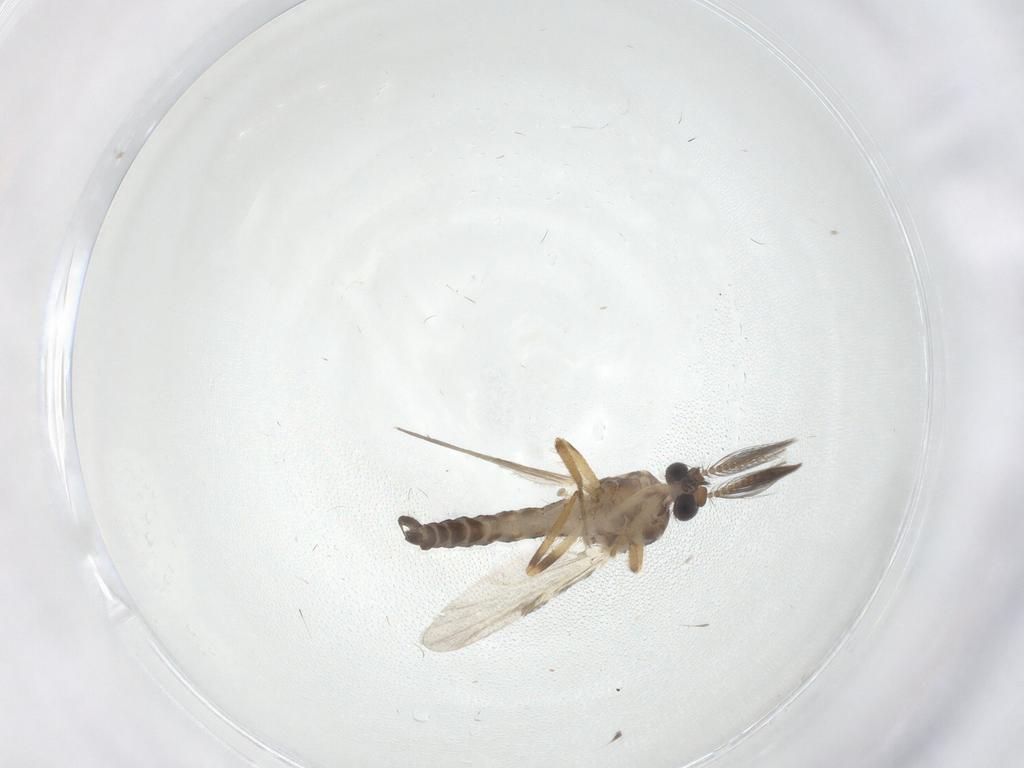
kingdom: Animalia
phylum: Arthropoda
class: Insecta
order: Diptera
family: Ceratopogonidae
